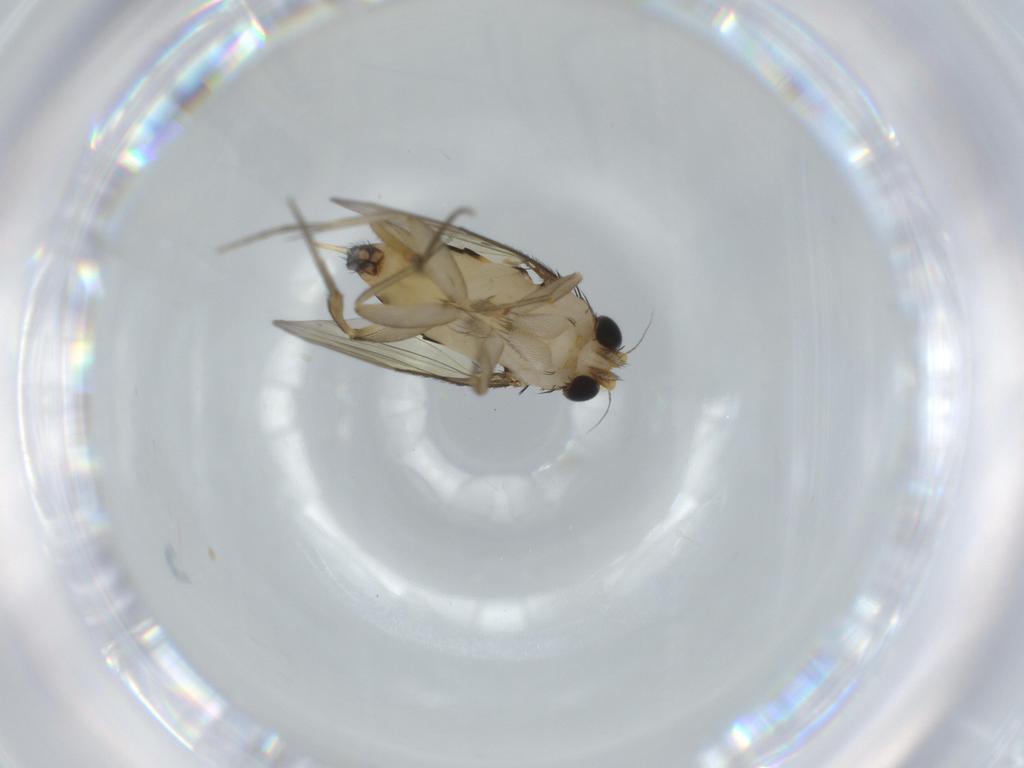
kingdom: Animalia
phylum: Arthropoda
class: Insecta
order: Diptera
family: Phoridae
